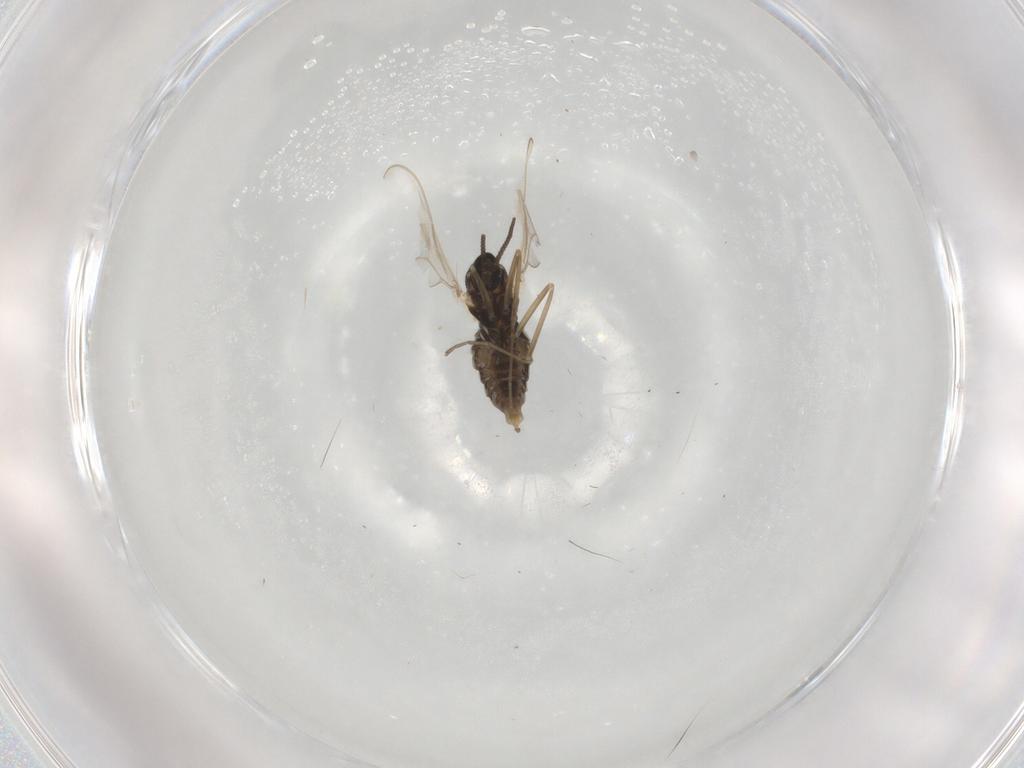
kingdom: Animalia
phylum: Arthropoda
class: Insecta
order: Diptera
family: Cecidomyiidae
